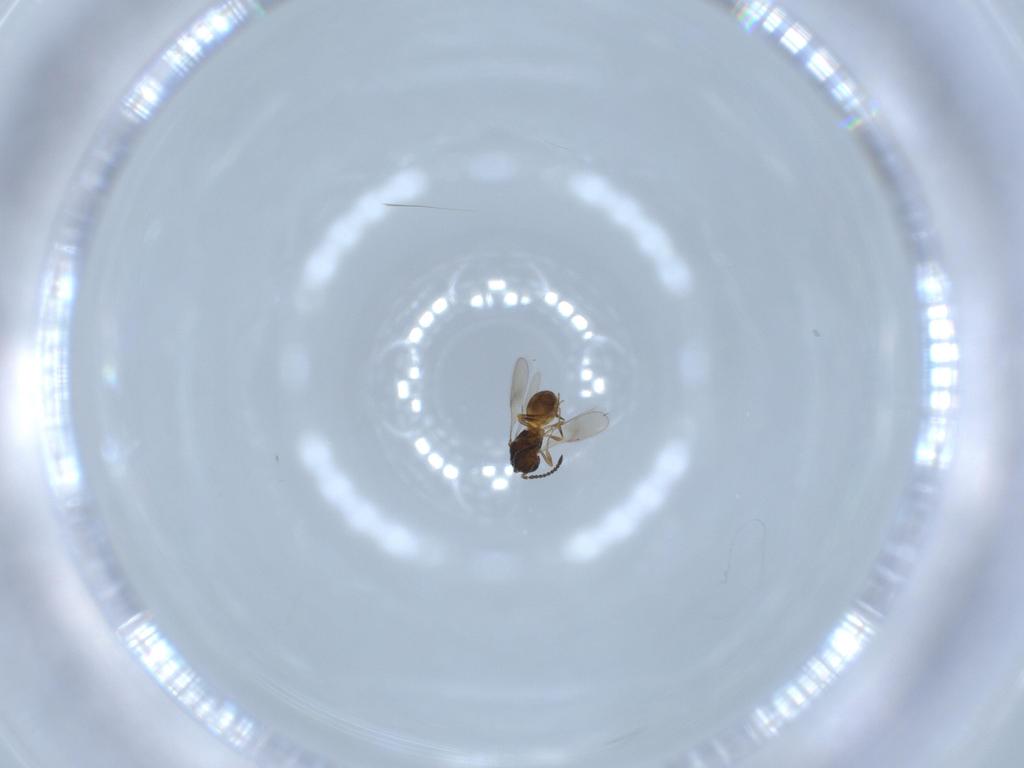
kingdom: Animalia
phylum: Arthropoda
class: Insecta
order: Hymenoptera
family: Scelionidae
